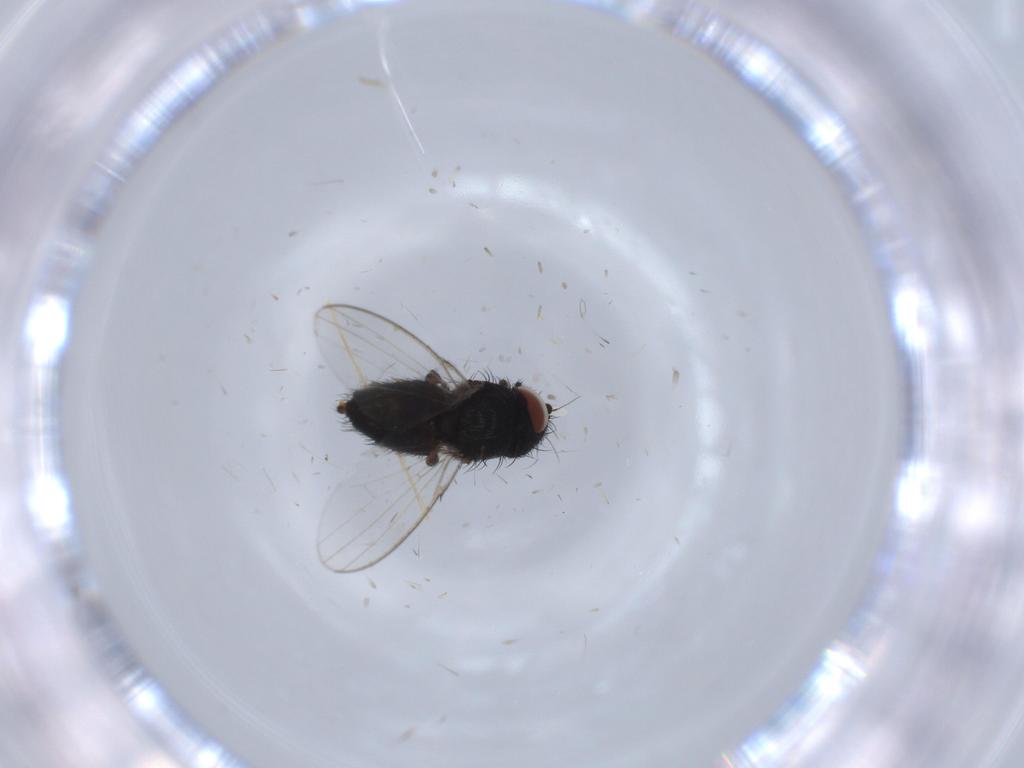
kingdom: Animalia
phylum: Arthropoda
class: Insecta
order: Diptera
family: Milichiidae
